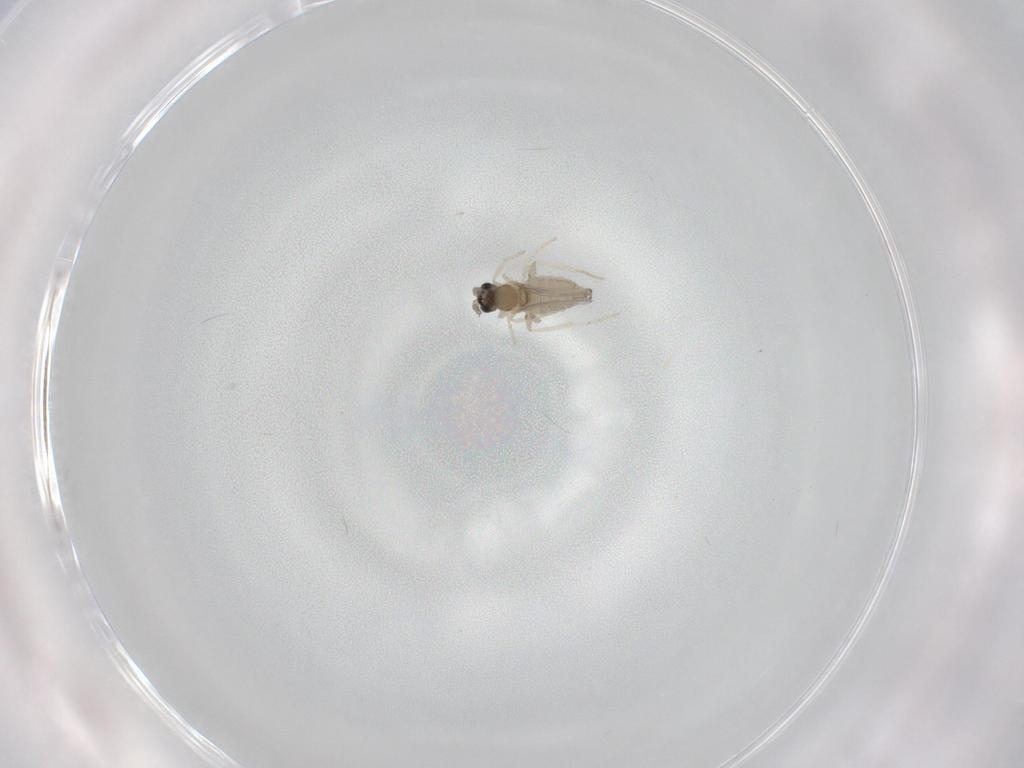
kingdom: Animalia
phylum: Arthropoda
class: Insecta
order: Diptera
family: Cecidomyiidae
